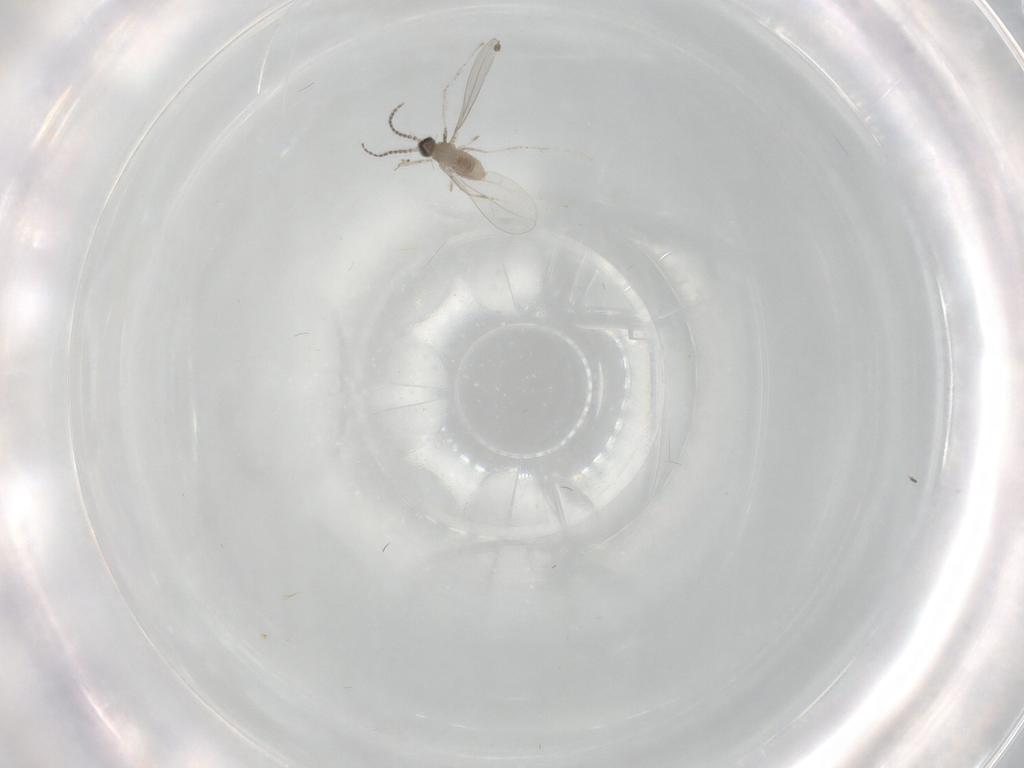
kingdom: Animalia
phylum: Arthropoda
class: Insecta
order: Diptera
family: Cecidomyiidae
